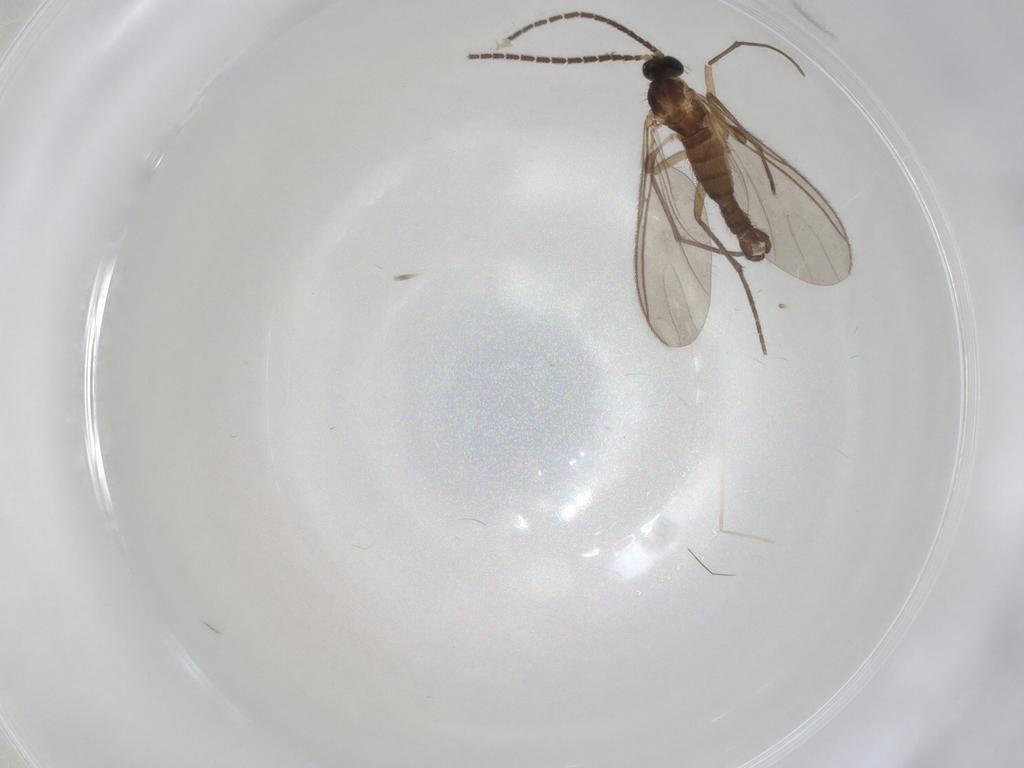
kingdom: Animalia
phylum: Arthropoda
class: Insecta
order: Diptera
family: Sciaridae
